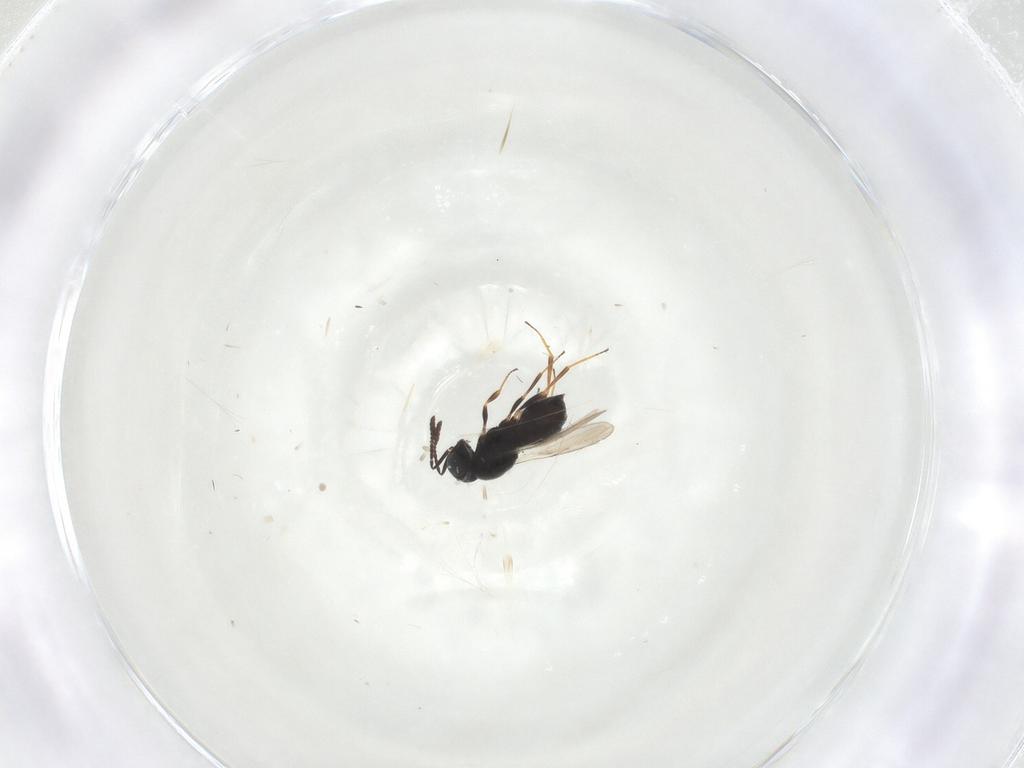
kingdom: Animalia
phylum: Arthropoda
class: Insecta
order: Hymenoptera
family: Scelionidae
